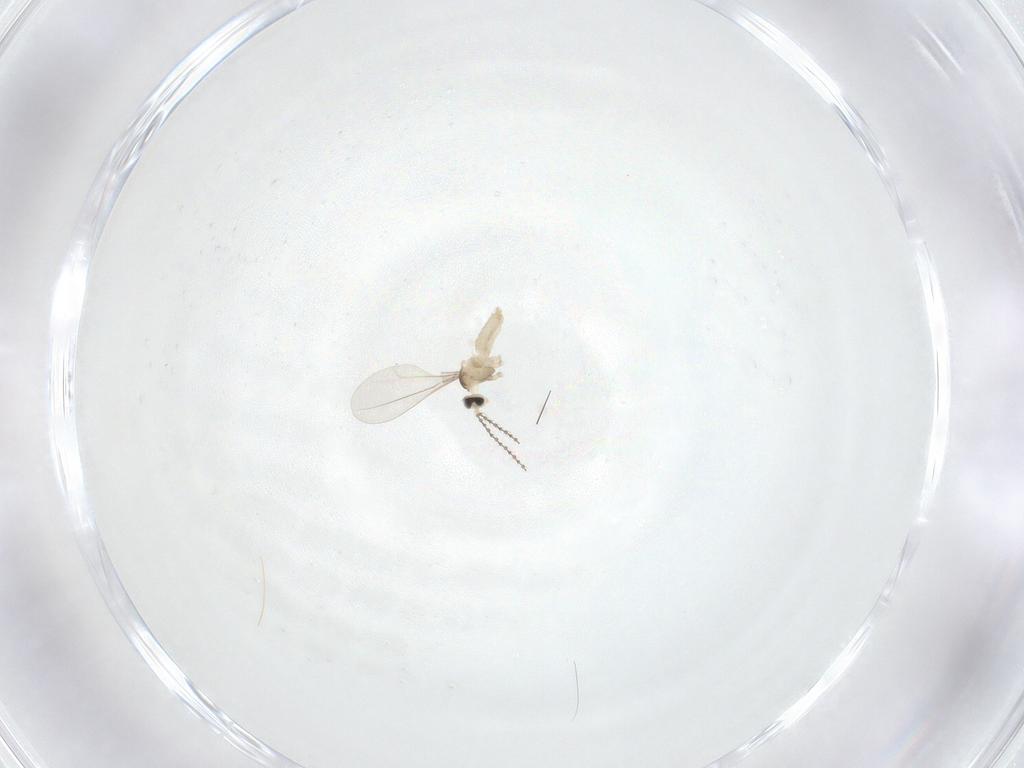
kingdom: Animalia
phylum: Arthropoda
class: Insecta
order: Diptera
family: Cecidomyiidae
